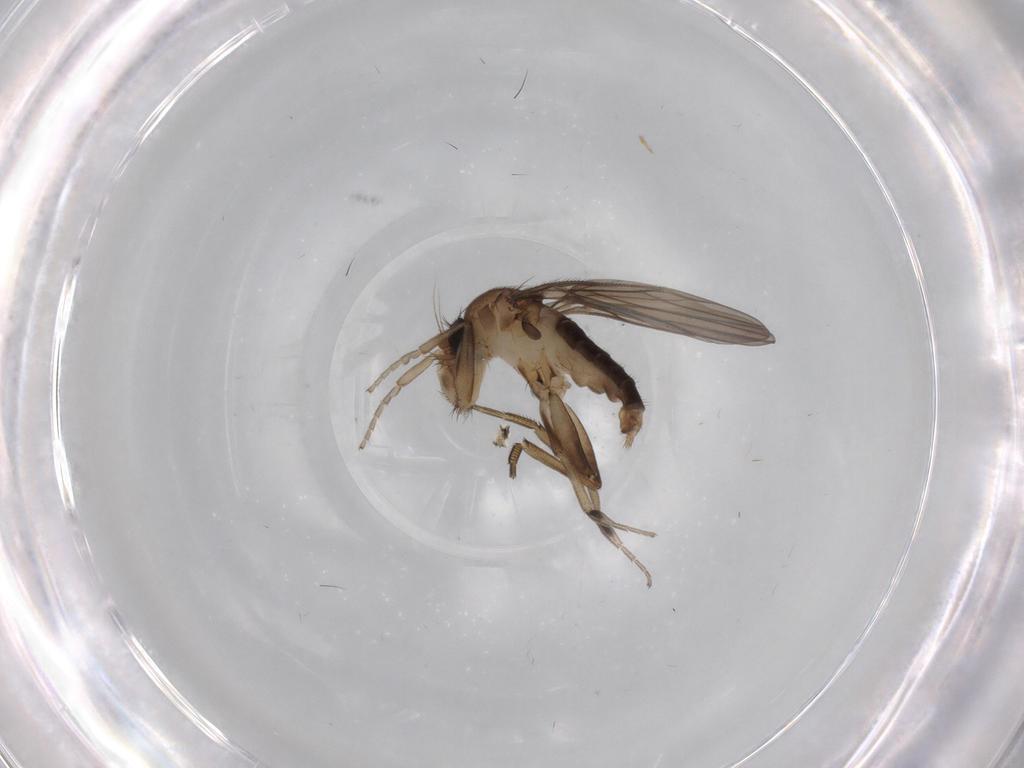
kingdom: Animalia
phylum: Arthropoda
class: Insecta
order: Diptera
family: Phoridae
